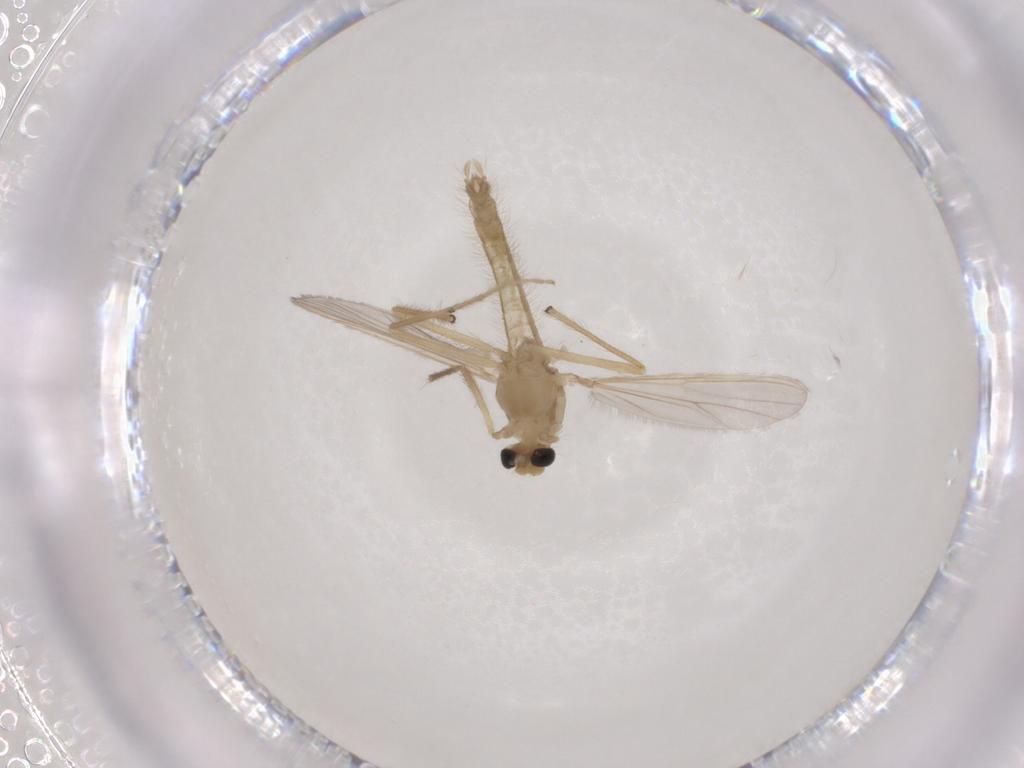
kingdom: Animalia
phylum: Arthropoda
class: Insecta
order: Diptera
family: Chironomidae
